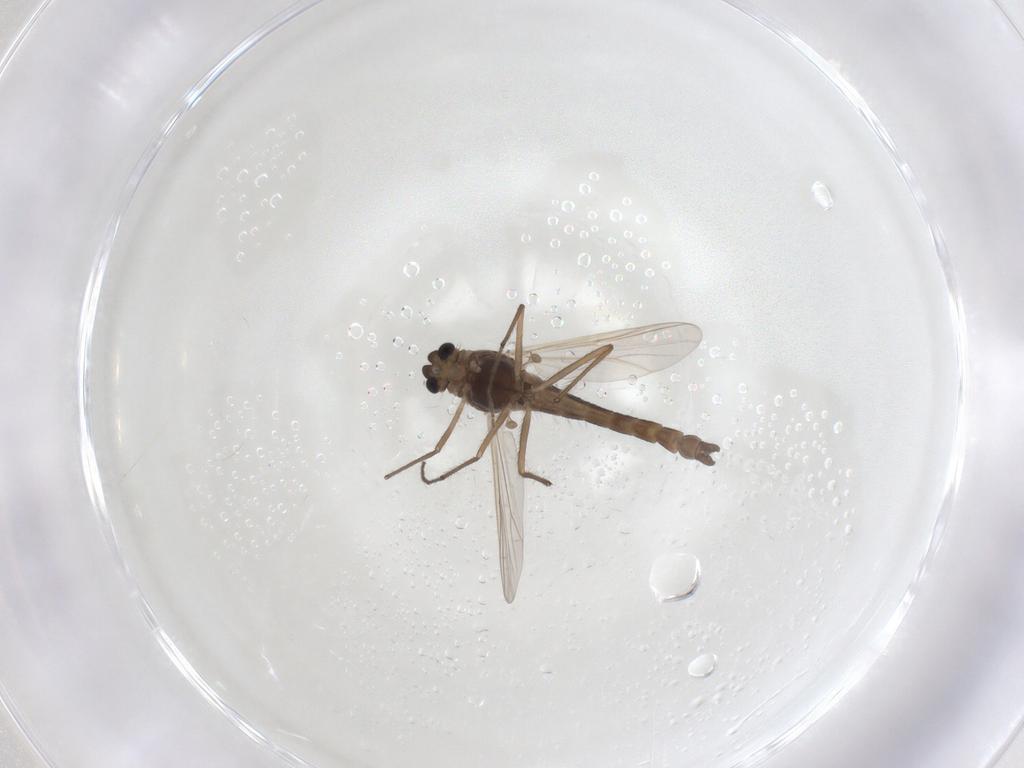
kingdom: Animalia
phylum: Arthropoda
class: Insecta
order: Diptera
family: Chironomidae
